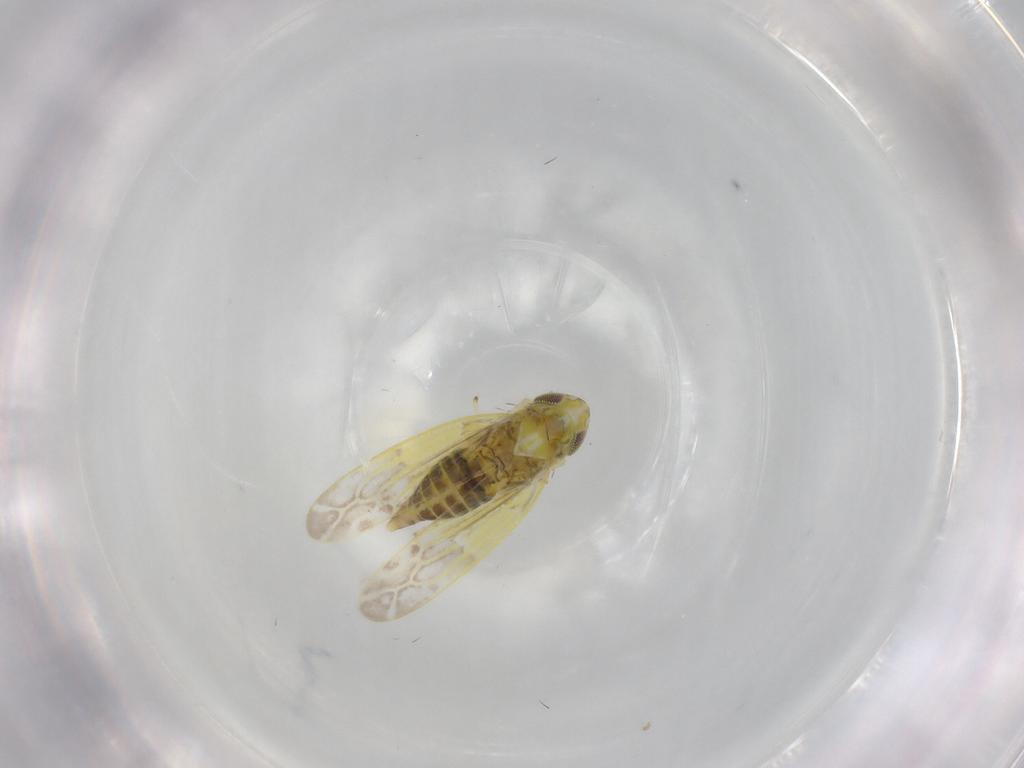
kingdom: Animalia
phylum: Arthropoda
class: Insecta
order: Hemiptera
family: Cicadellidae
